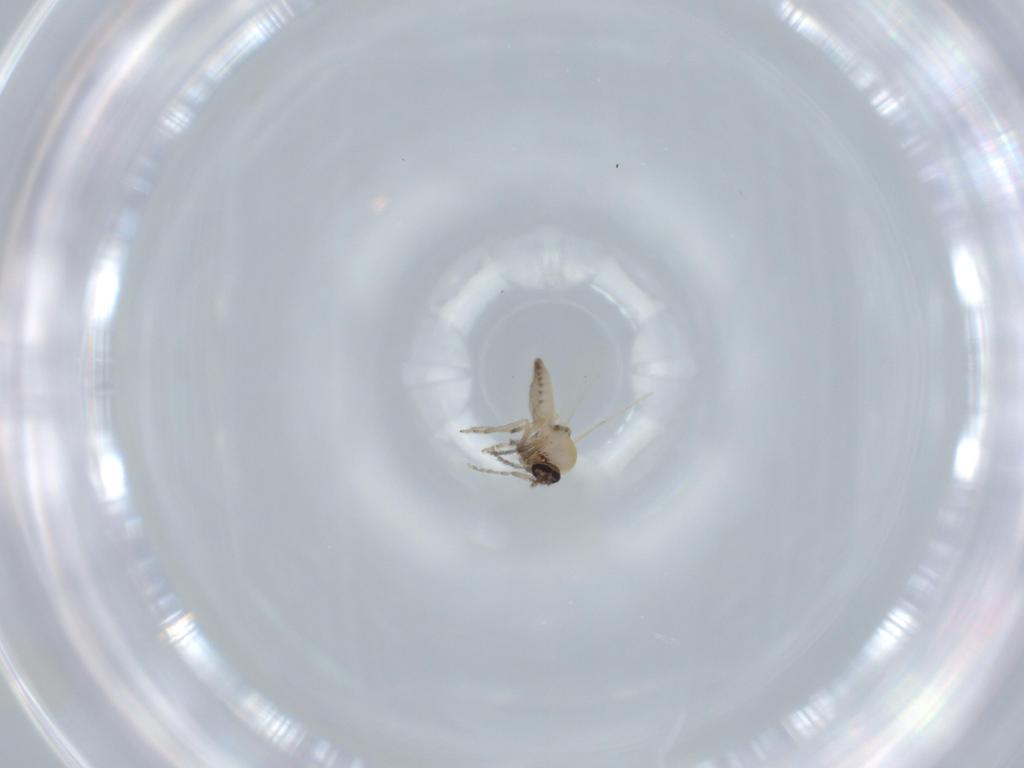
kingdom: Animalia
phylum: Arthropoda
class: Insecta
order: Diptera
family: Ceratopogonidae
